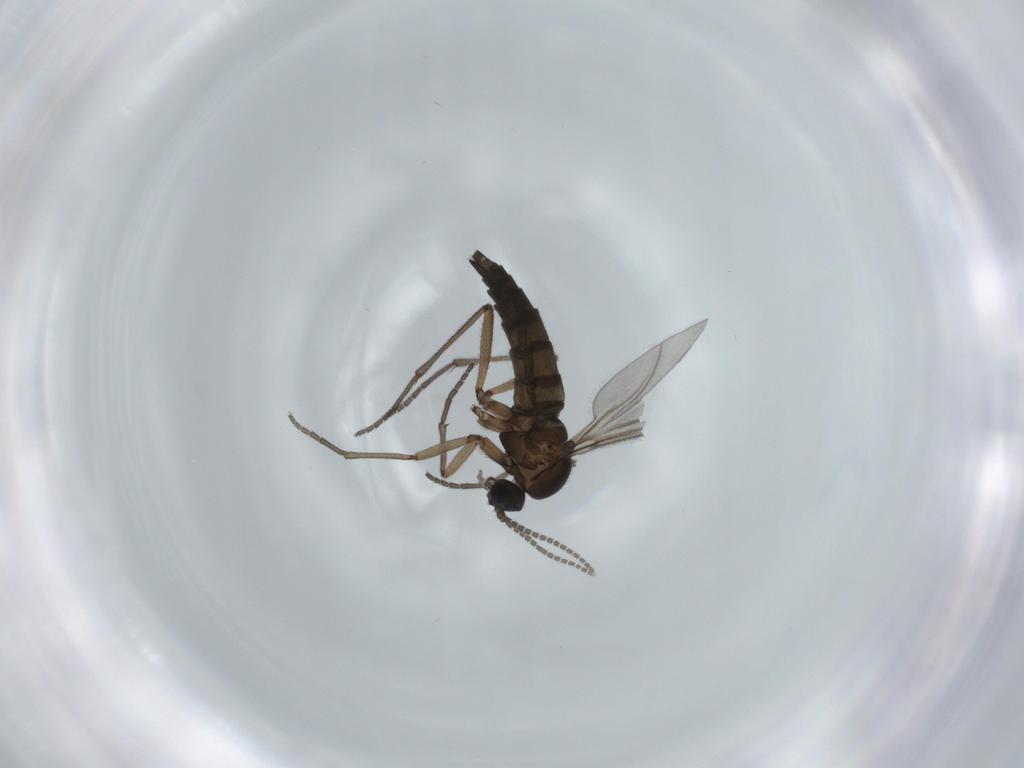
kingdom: Animalia
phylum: Arthropoda
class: Insecta
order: Diptera
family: Sciaridae
